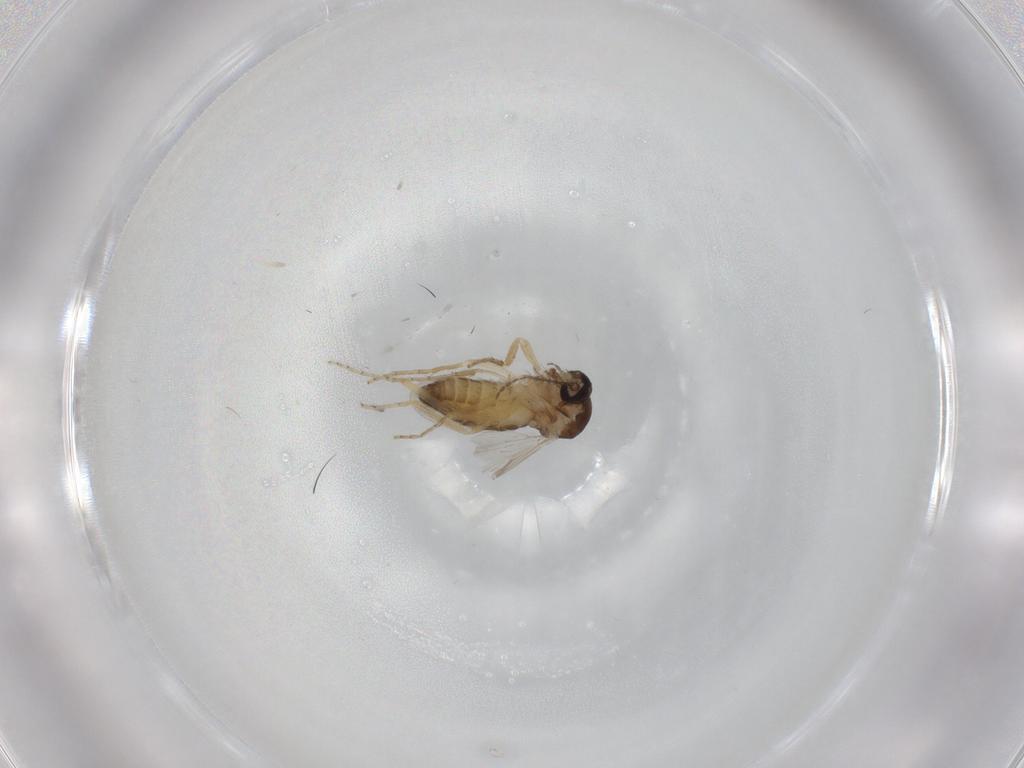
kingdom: Animalia
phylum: Arthropoda
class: Insecta
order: Diptera
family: Ceratopogonidae
